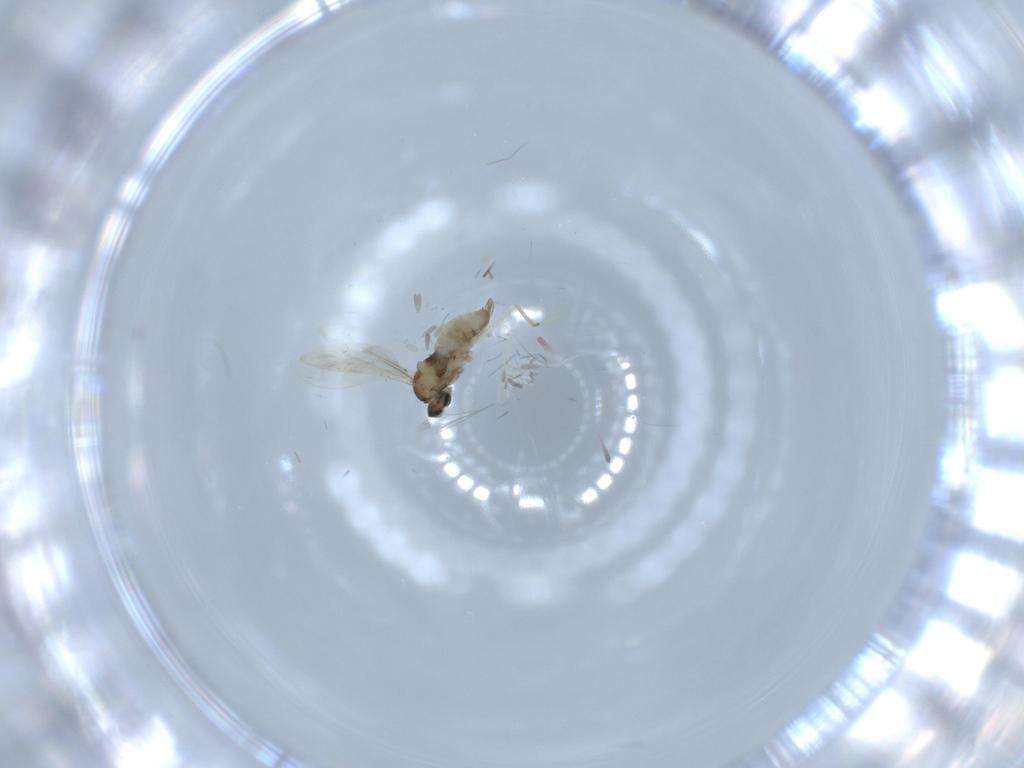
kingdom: Animalia
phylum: Arthropoda
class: Insecta
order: Diptera
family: Cecidomyiidae
